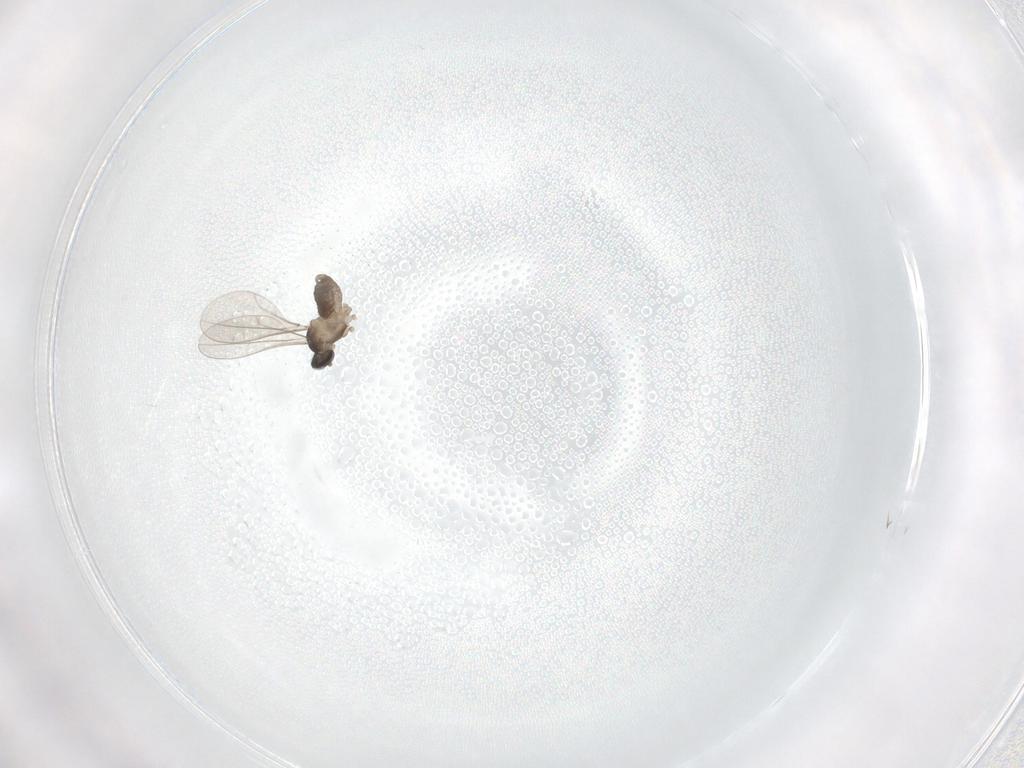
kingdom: Animalia
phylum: Arthropoda
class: Insecta
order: Diptera
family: Cecidomyiidae
